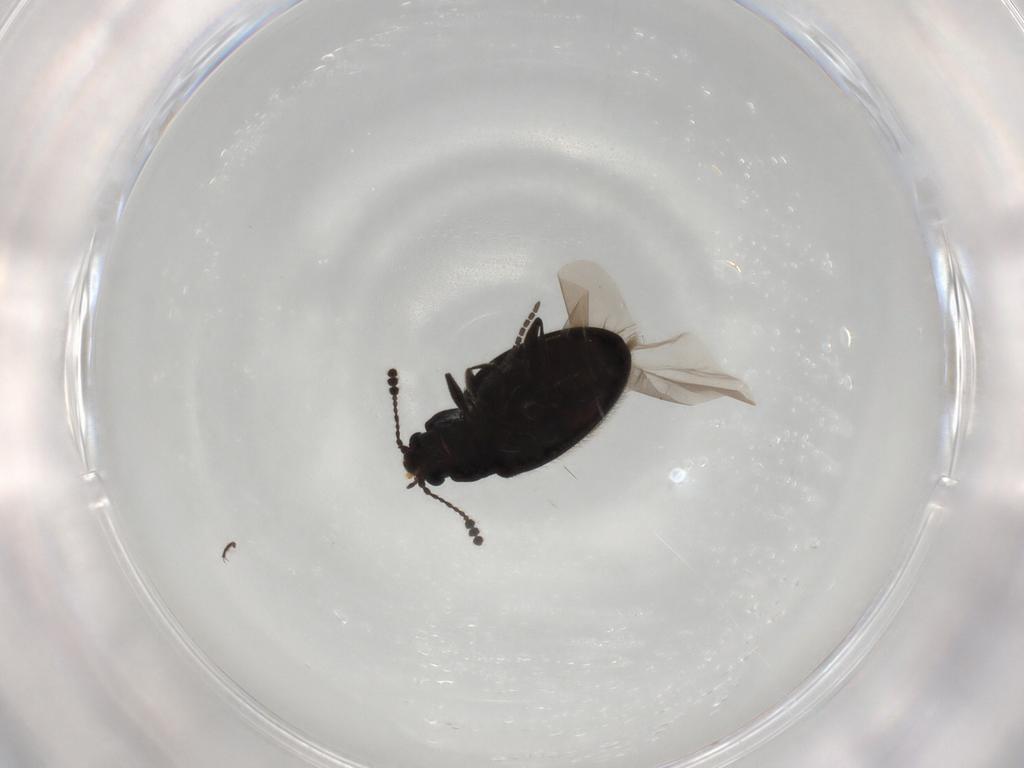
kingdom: Animalia
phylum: Arthropoda
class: Insecta
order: Coleoptera
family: Erotylidae
